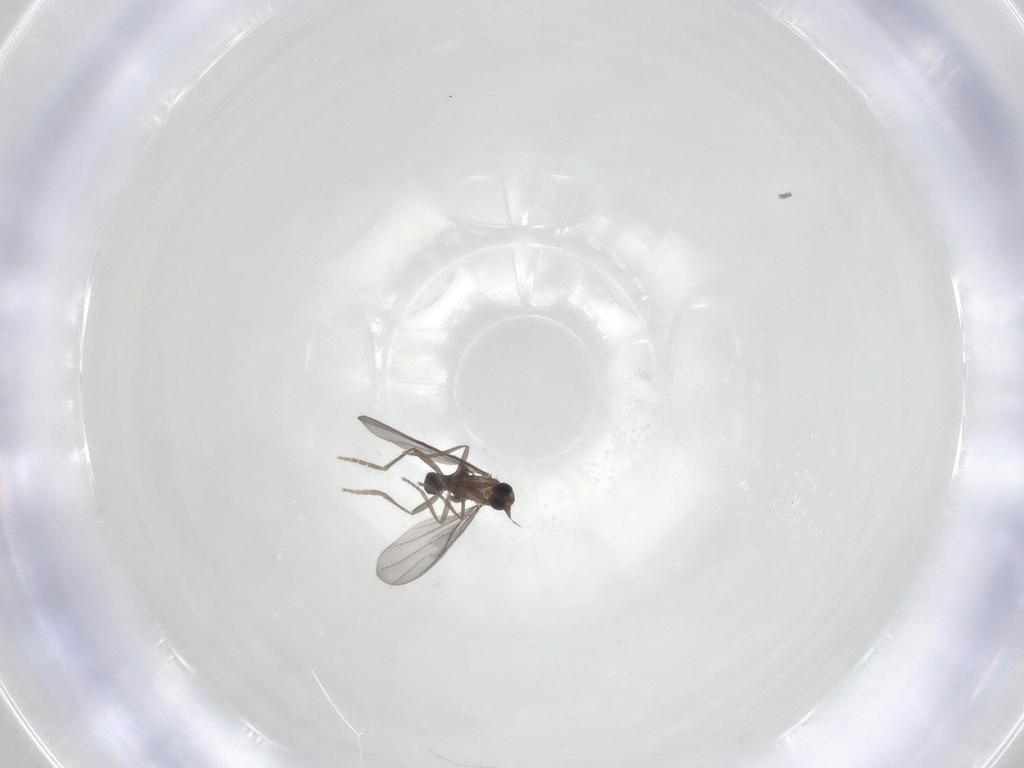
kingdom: Animalia
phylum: Arthropoda
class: Insecta
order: Diptera
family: Phoridae
